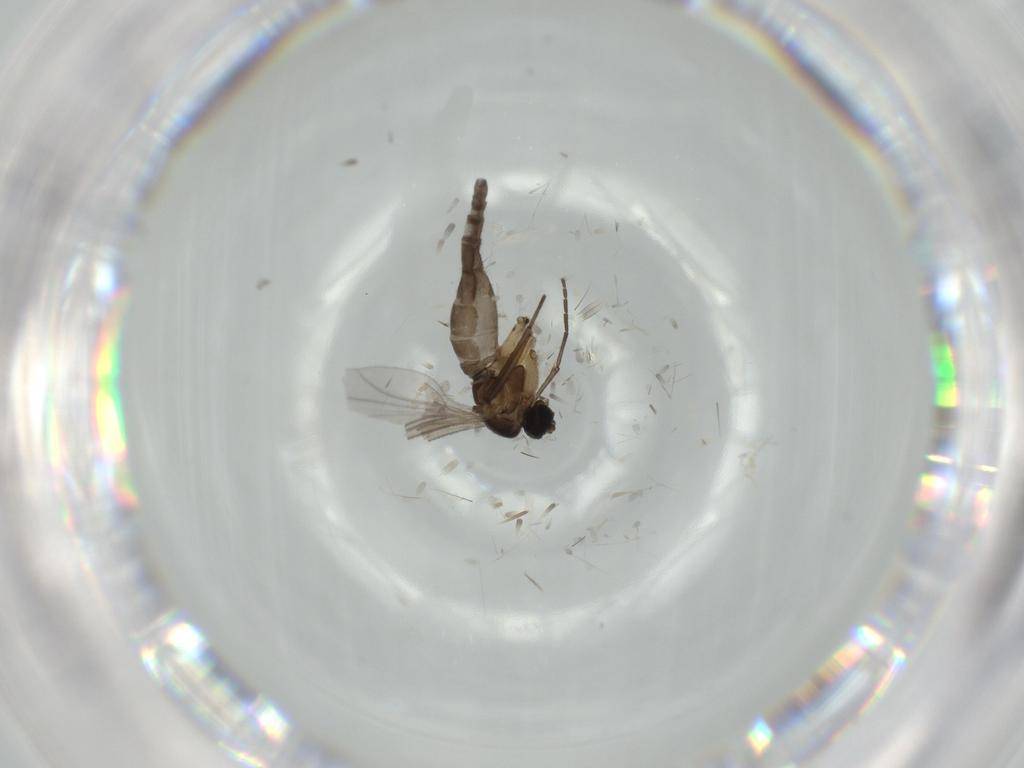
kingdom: Animalia
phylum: Arthropoda
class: Insecta
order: Diptera
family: Sciaridae
